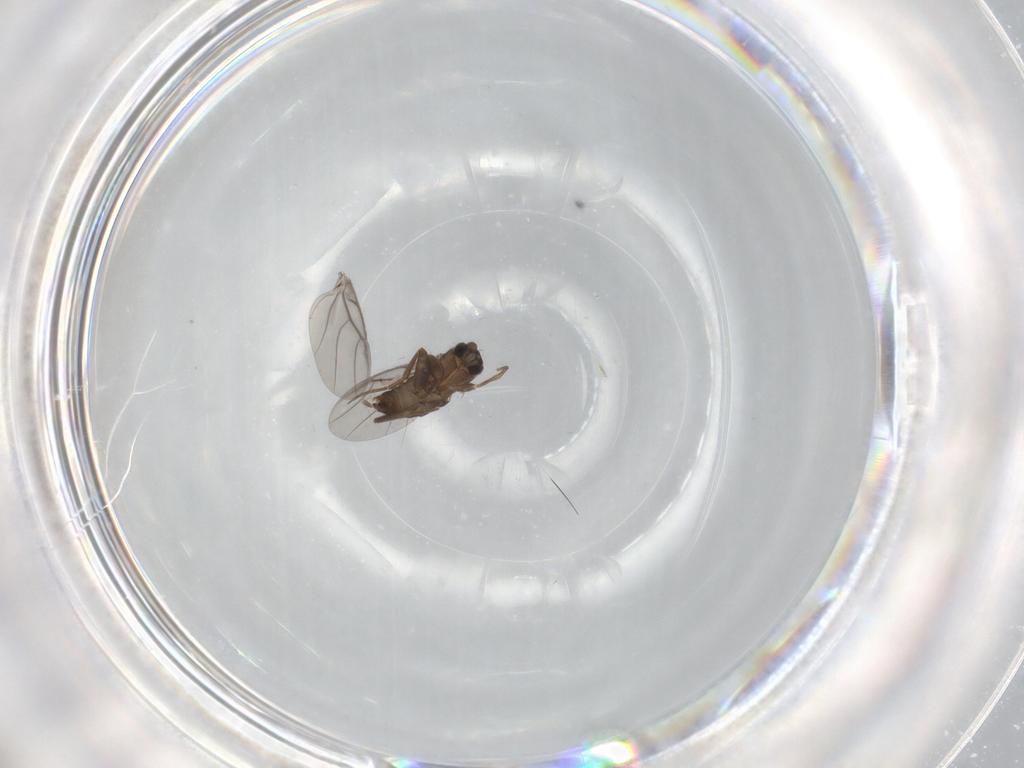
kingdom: Animalia
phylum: Arthropoda
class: Insecta
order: Diptera
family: Phoridae
